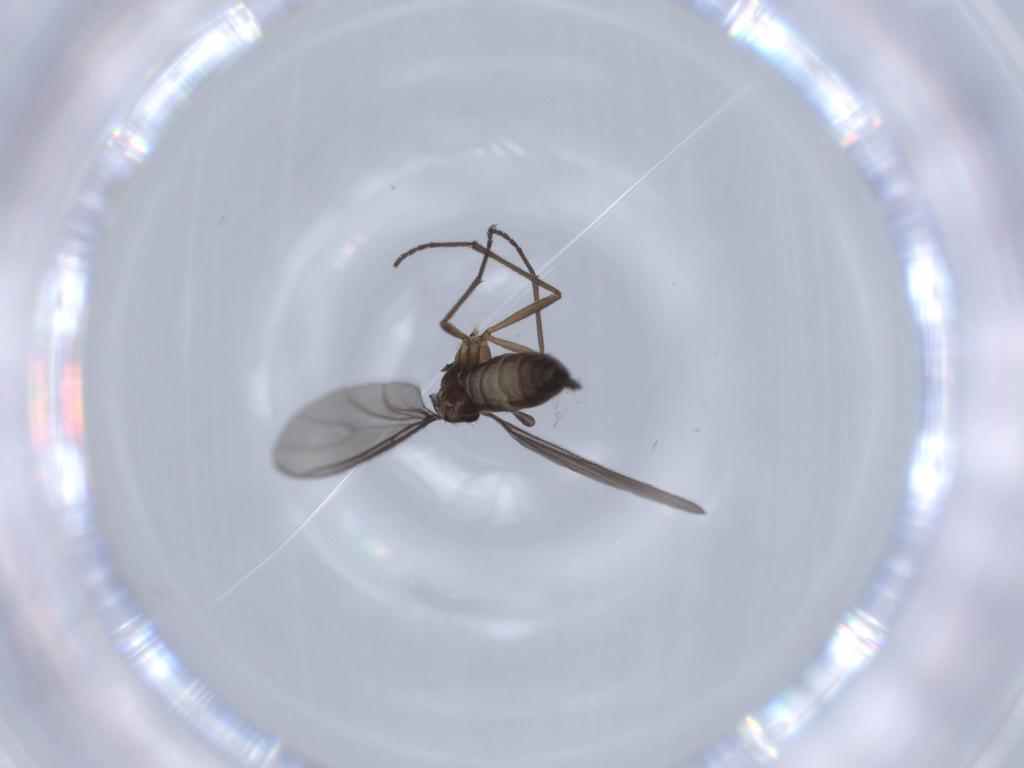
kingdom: Animalia
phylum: Arthropoda
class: Insecta
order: Diptera
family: Sciaridae
